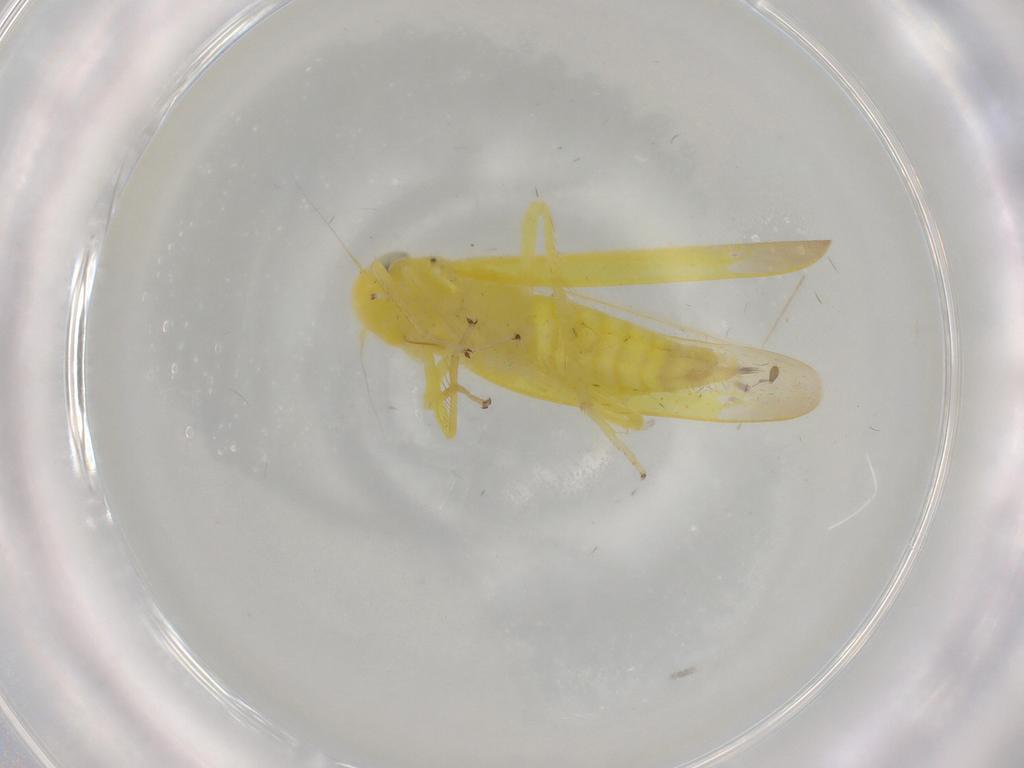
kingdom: Animalia
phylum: Arthropoda
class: Insecta
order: Hemiptera
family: Cicadellidae
